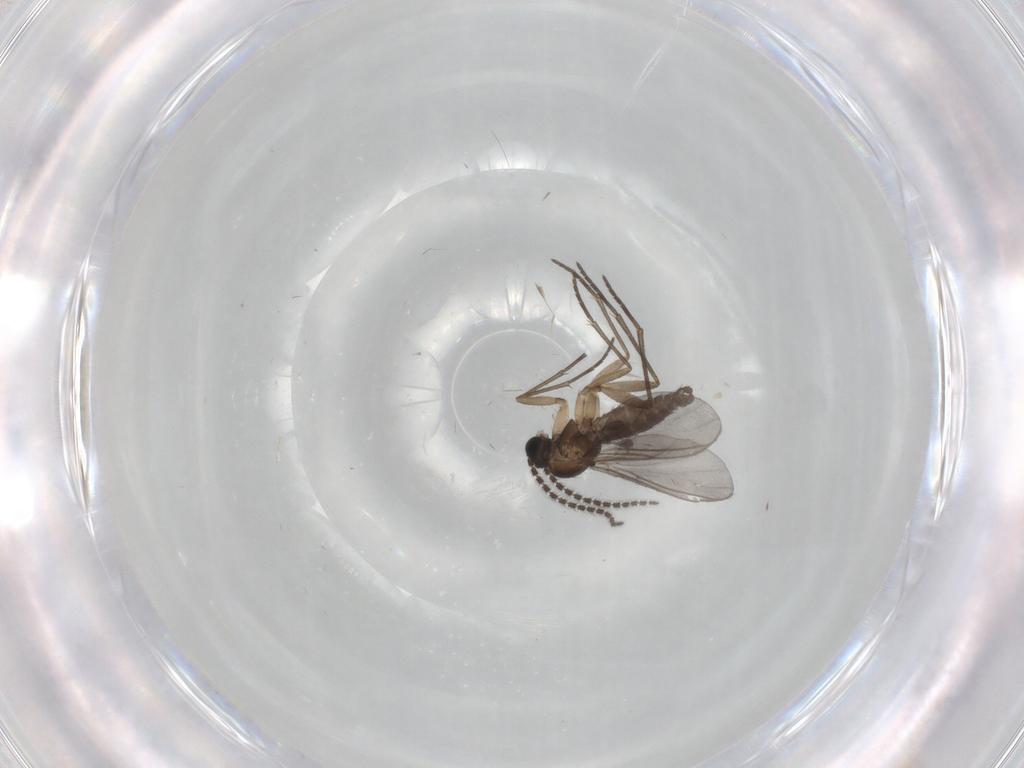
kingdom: Animalia
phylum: Arthropoda
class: Insecta
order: Diptera
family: Sciaridae
